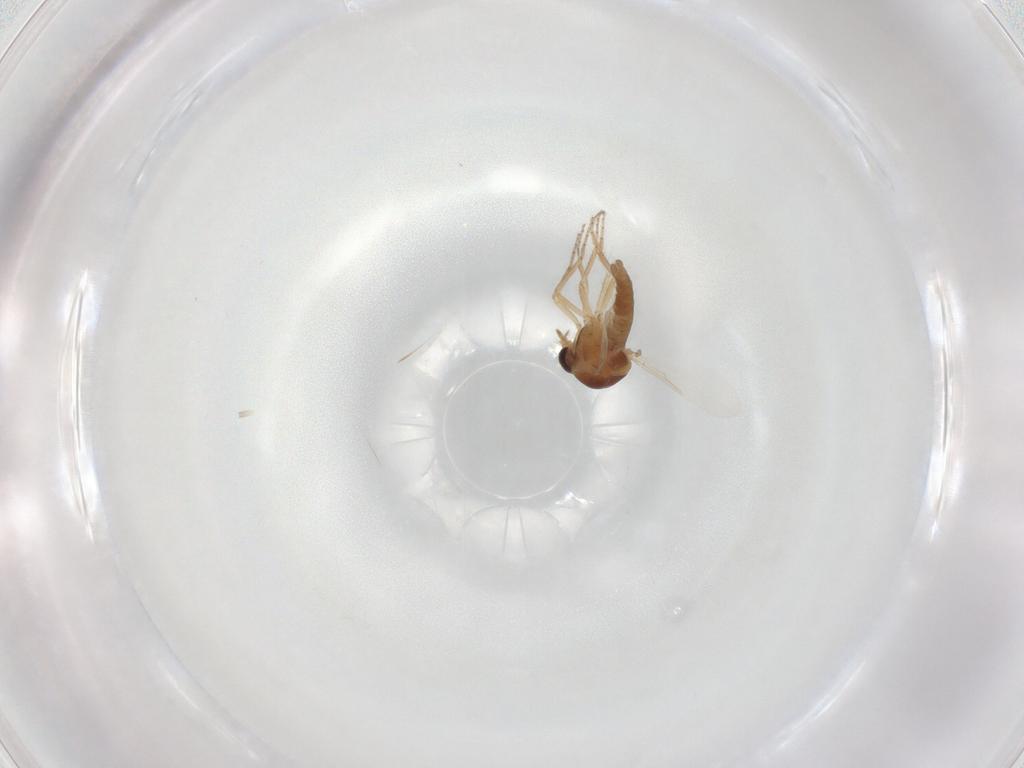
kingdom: Animalia
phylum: Arthropoda
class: Insecta
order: Diptera
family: Ceratopogonidae
